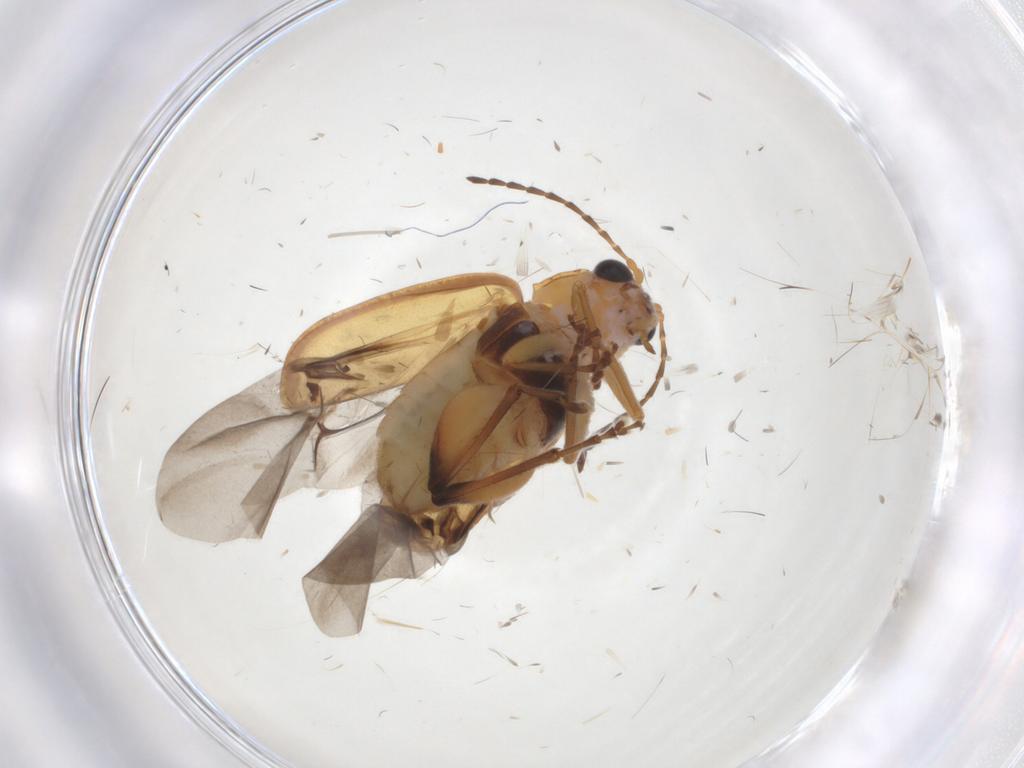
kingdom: Animalia
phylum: Arthropoda
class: Insecta
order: Coleoptera
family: Chrysomelidae
